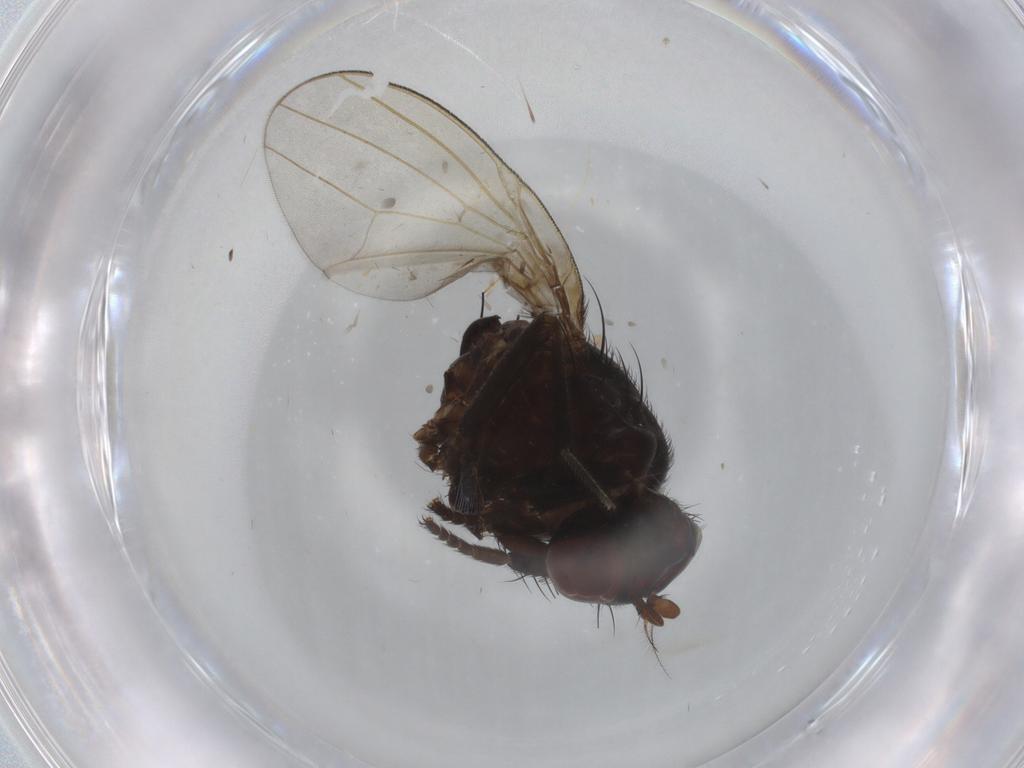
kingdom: Animalia
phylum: Arthropoda
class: Insecta
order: Diptera
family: Lauxaniidae
